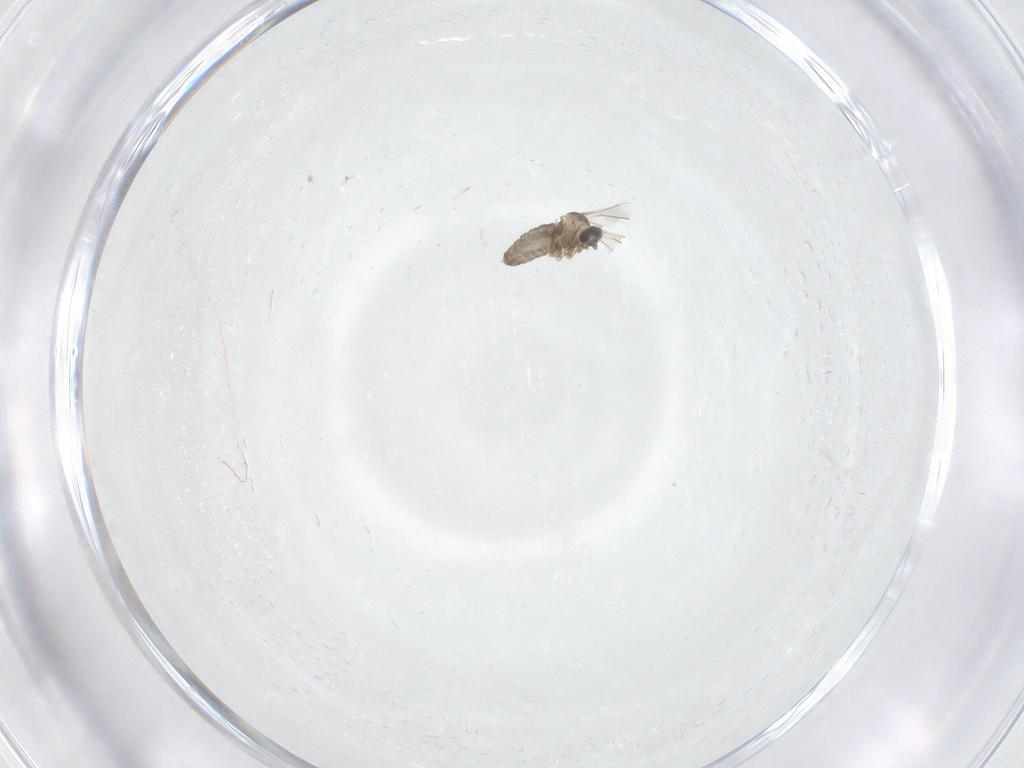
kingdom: Animalia
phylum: Arthropoda
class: Insecta
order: Diptera
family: Cecidomyiidae
